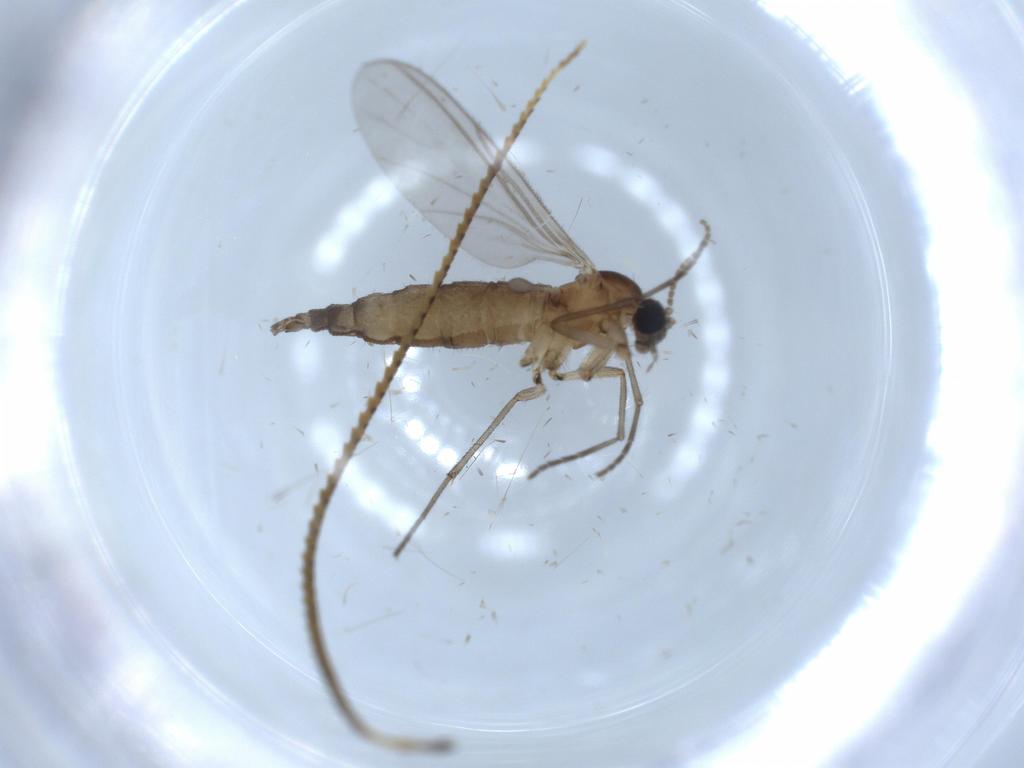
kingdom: Animalia
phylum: Arthropoda
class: Insecta
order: Diptera
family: Sciaridae
